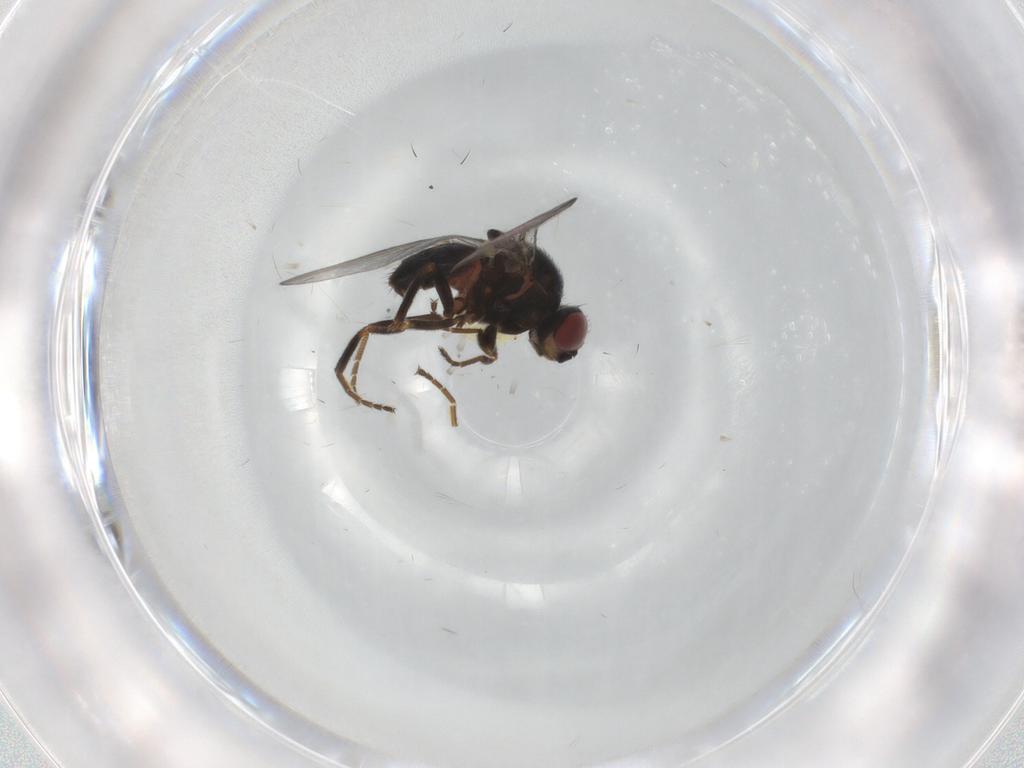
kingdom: Animalia
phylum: Arthropoda
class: Insecta
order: Diptera
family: Chloropidae
